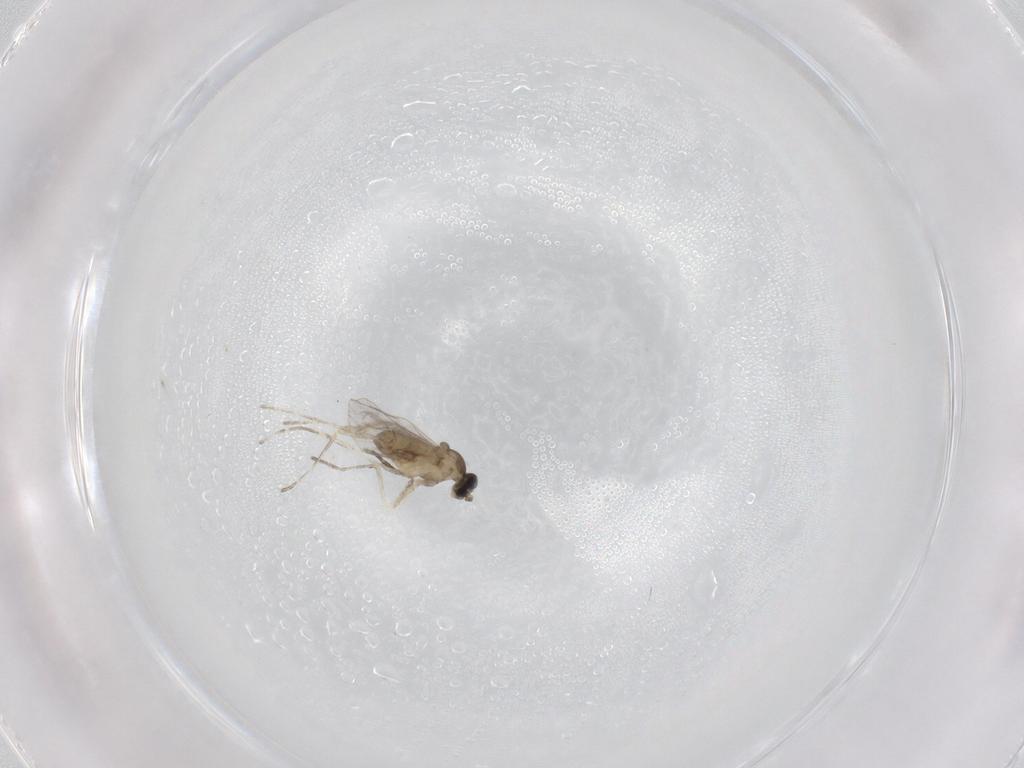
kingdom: Animalia
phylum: Arthropoda
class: Insecta
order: Diptera
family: Cecidomyiidae
